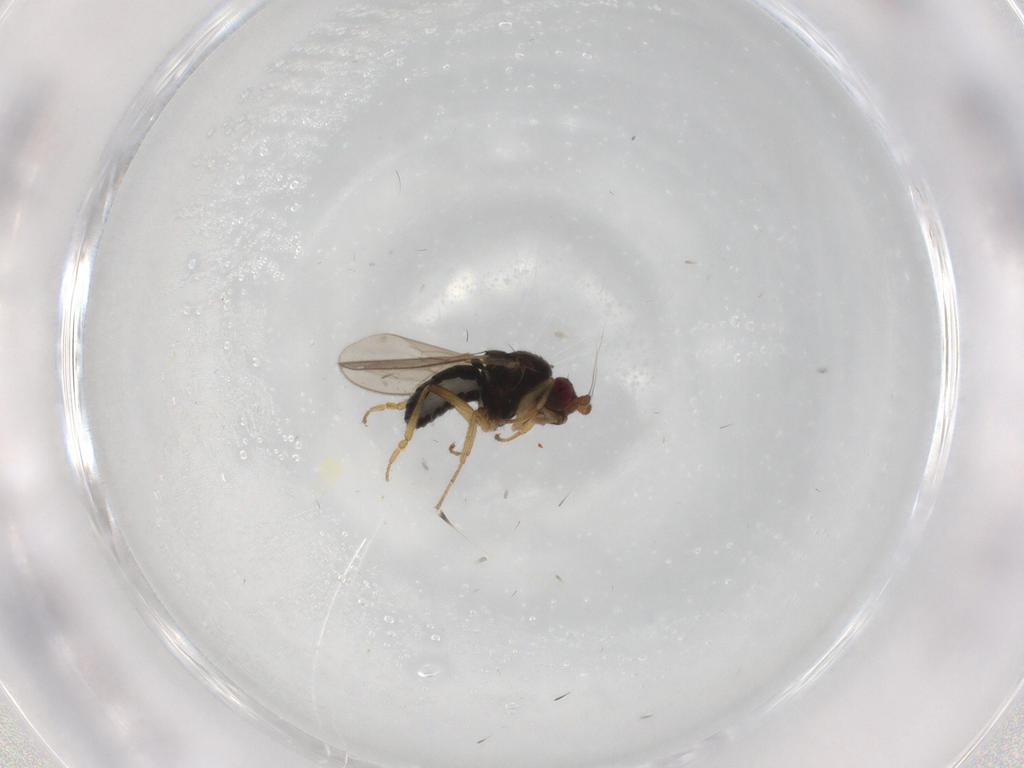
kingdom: Animalia
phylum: Arthropoda
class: Insecta
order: Diptera
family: Sphaeroceridae
